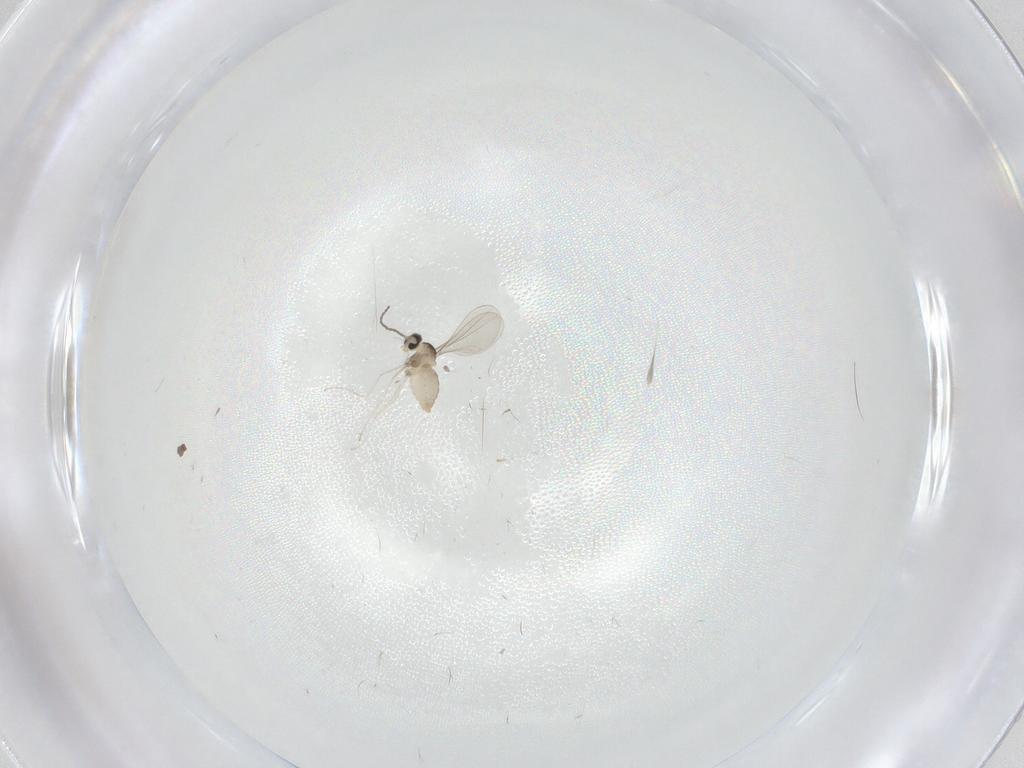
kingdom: Animalia
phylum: Arthropoda
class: Insecta
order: Diptera
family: Cecidomyiidae
